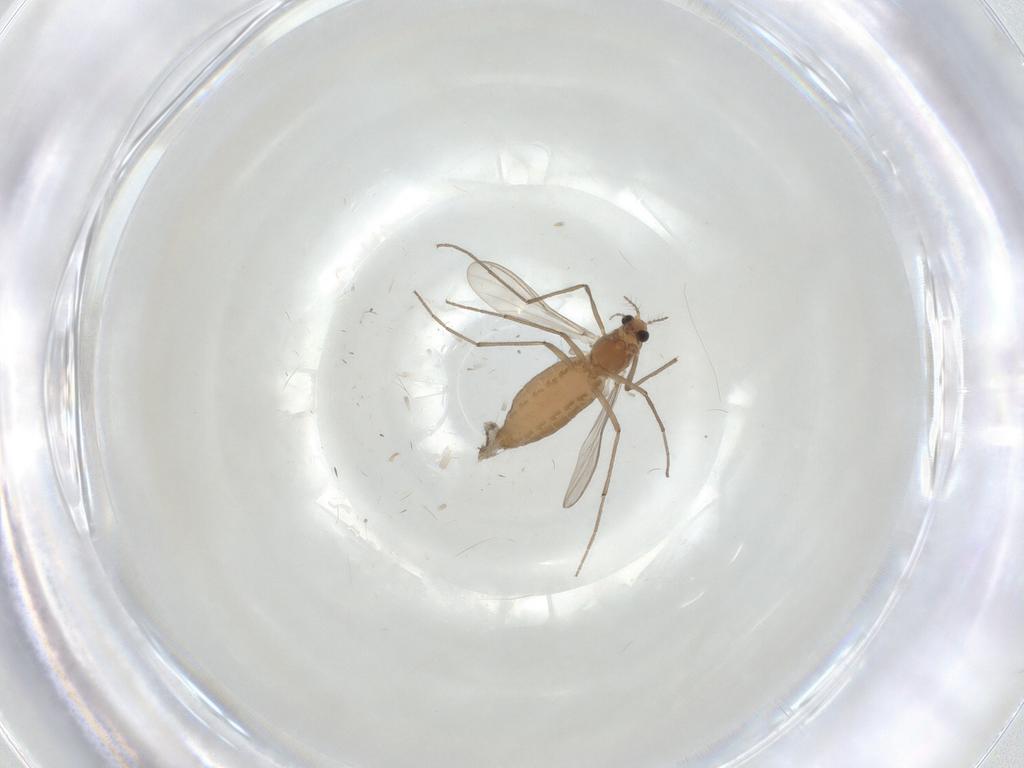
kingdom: Animalia
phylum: Arthropoda
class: Insecta
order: Diptera
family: Chironomidae
